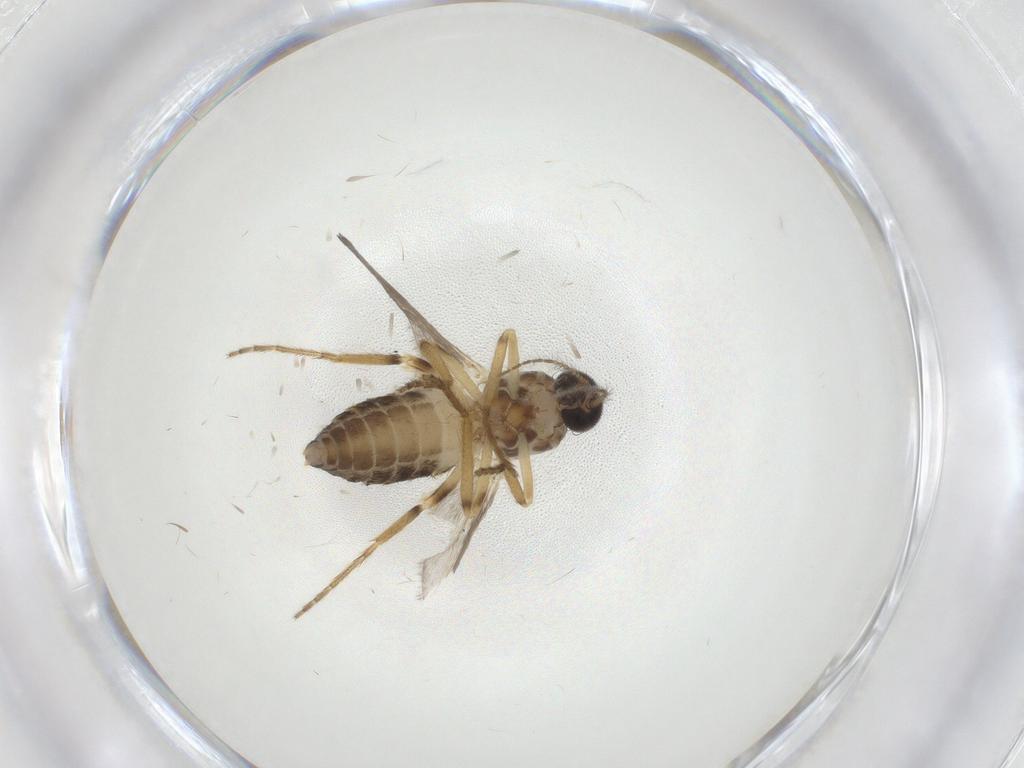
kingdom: Animalia
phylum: Arthropoda
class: Insecta
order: Diptera
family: Ceratopogonidae
